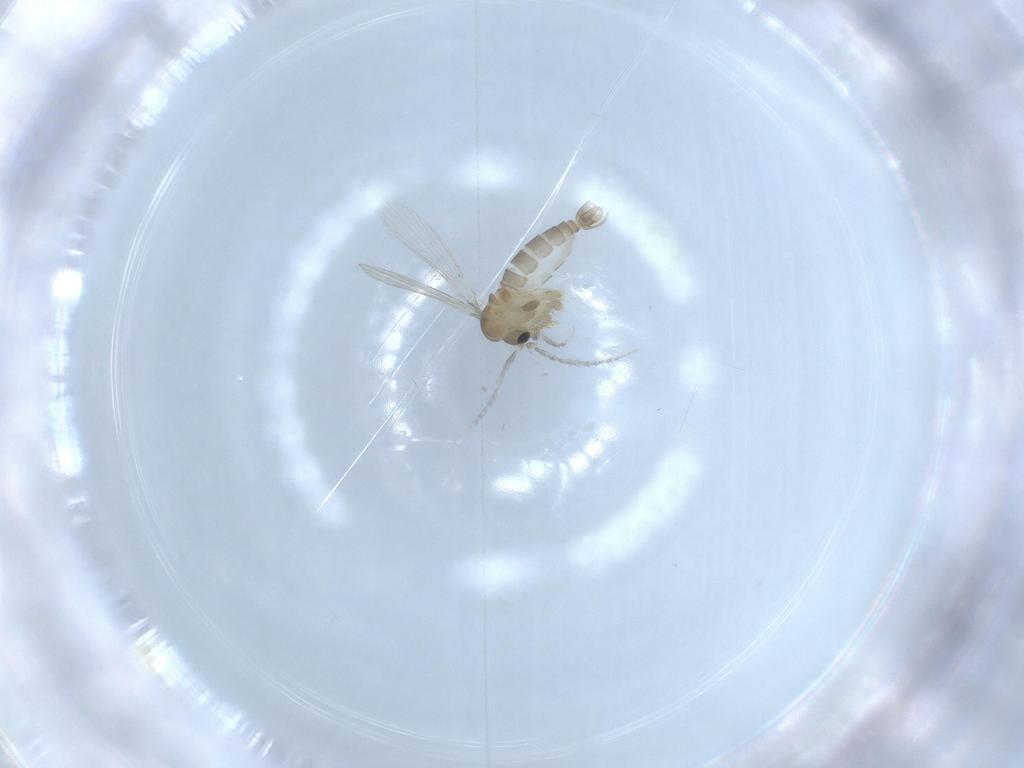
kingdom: Animalia
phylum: Arthropoda
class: Insecta
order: Diptera
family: Psychodidae
